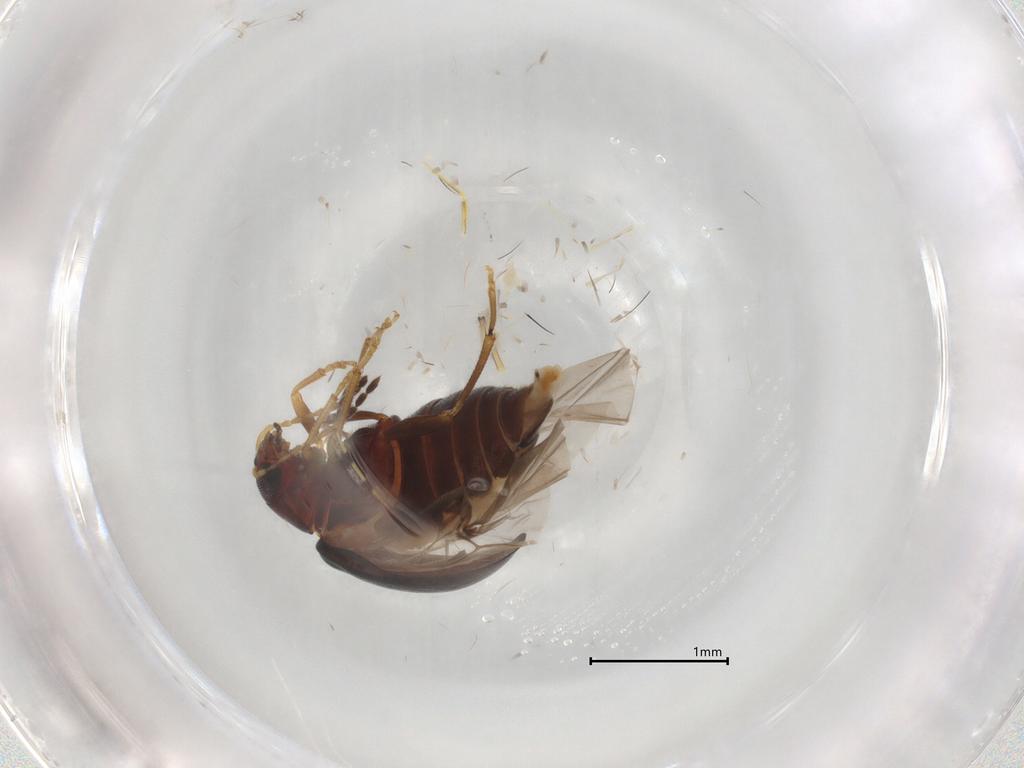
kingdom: Animalia
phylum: Arthropoda
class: Insecta
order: Coleoptera
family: Chrysomelidae
